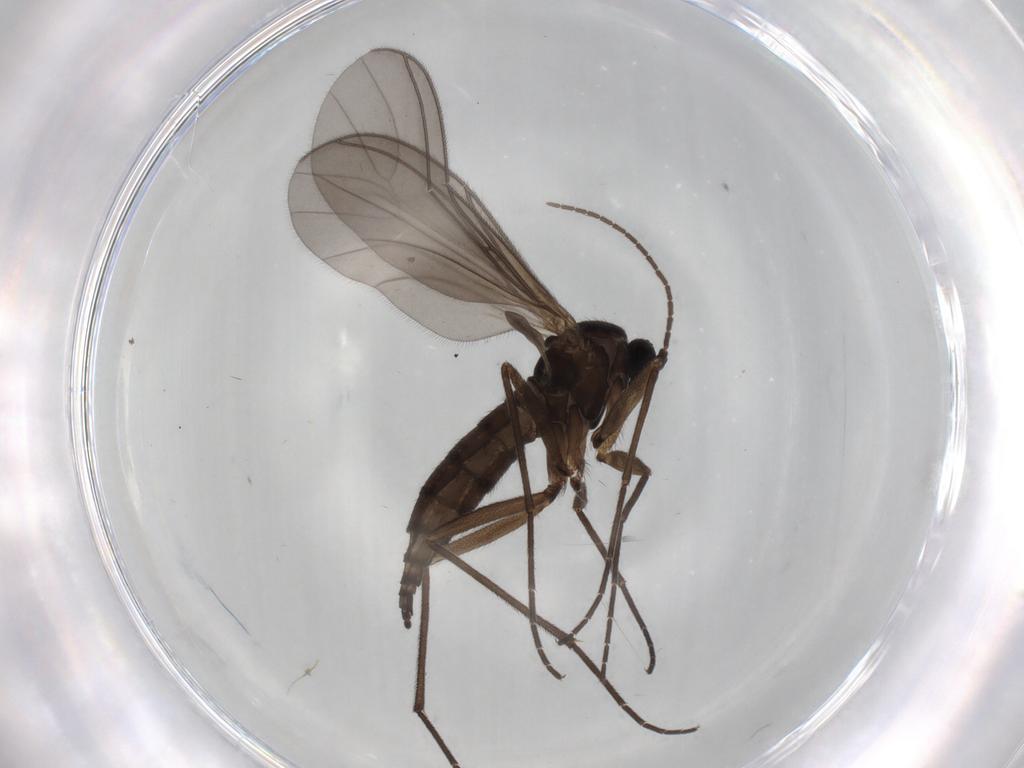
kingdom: Animalia
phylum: Arthropoda
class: Insecta
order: Diptera
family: Sciaridae
